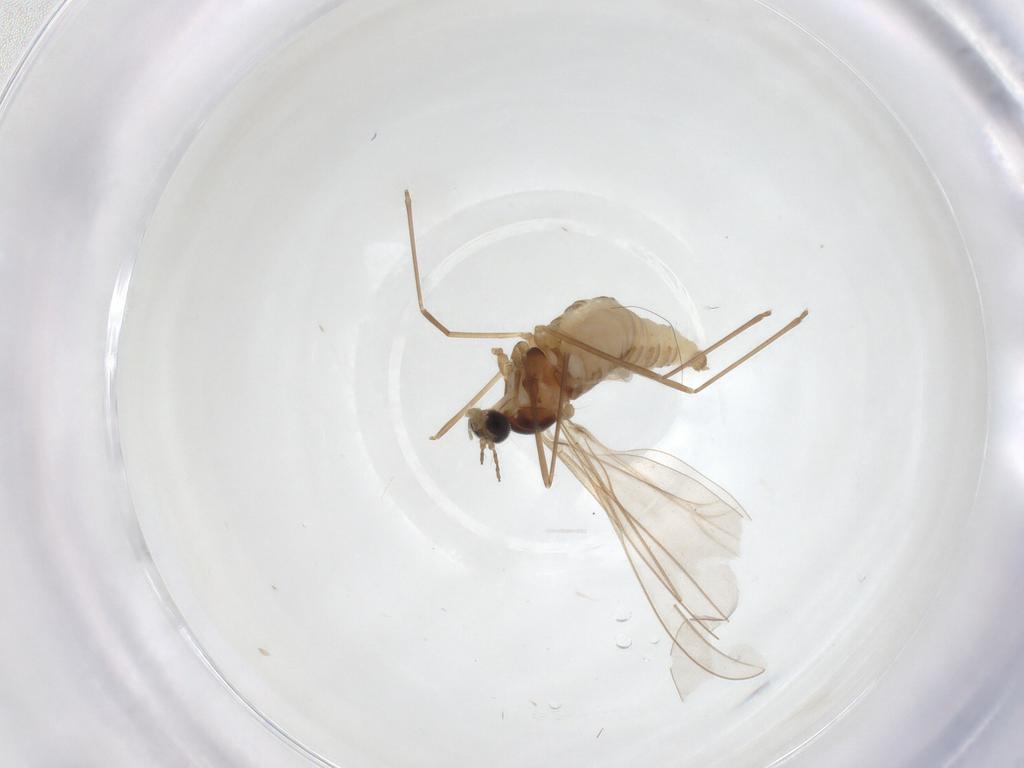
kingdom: Animalia
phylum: Arthropoda
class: Insecta
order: Diptera
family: Cecidomyiidae
